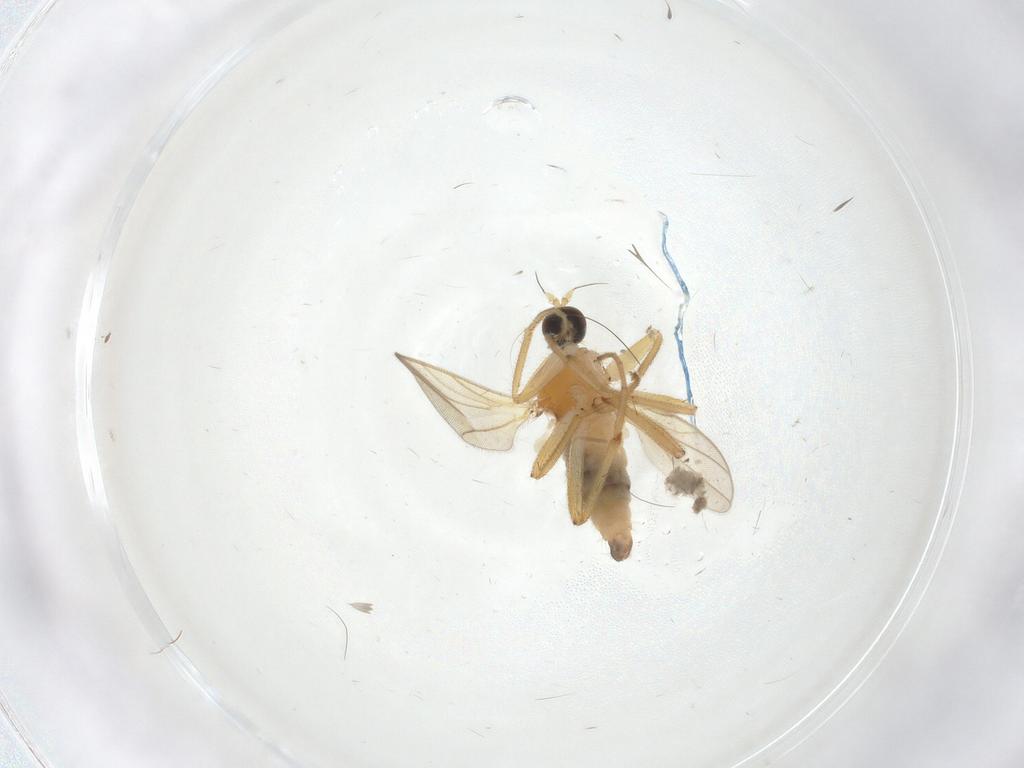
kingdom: Animalia
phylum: Arthropoda
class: Insecta
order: Diptera
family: Hybotidae
